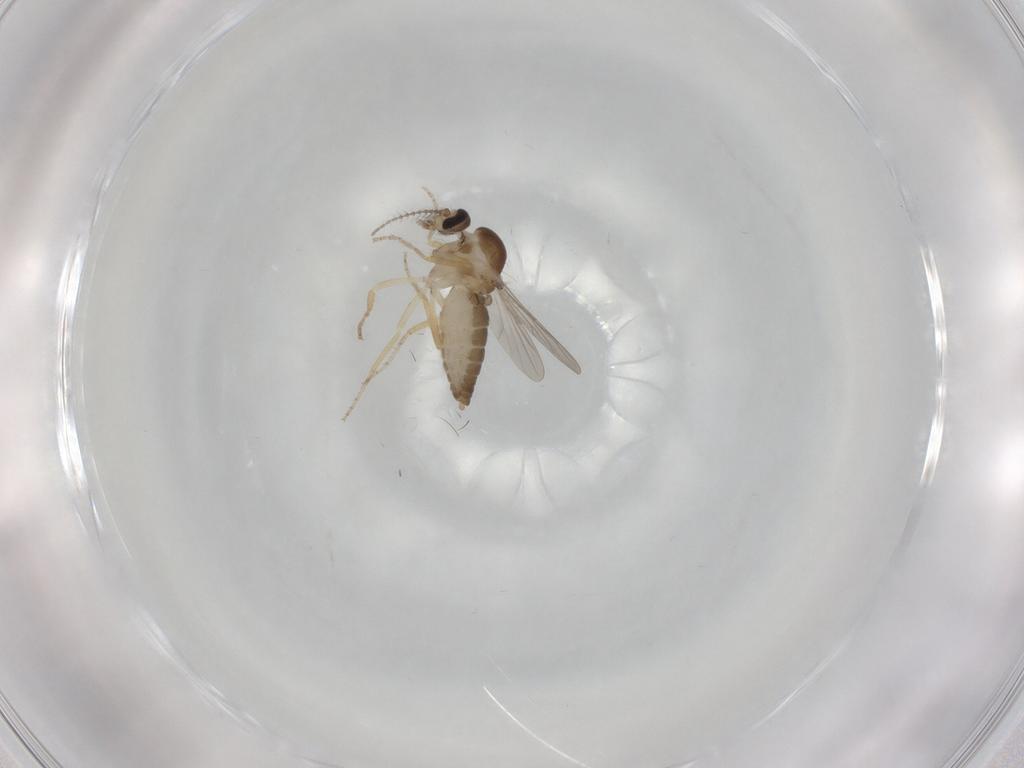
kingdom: Animalia
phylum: Arthropoda
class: Insecta
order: Diptera
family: Ceratopogonidae
